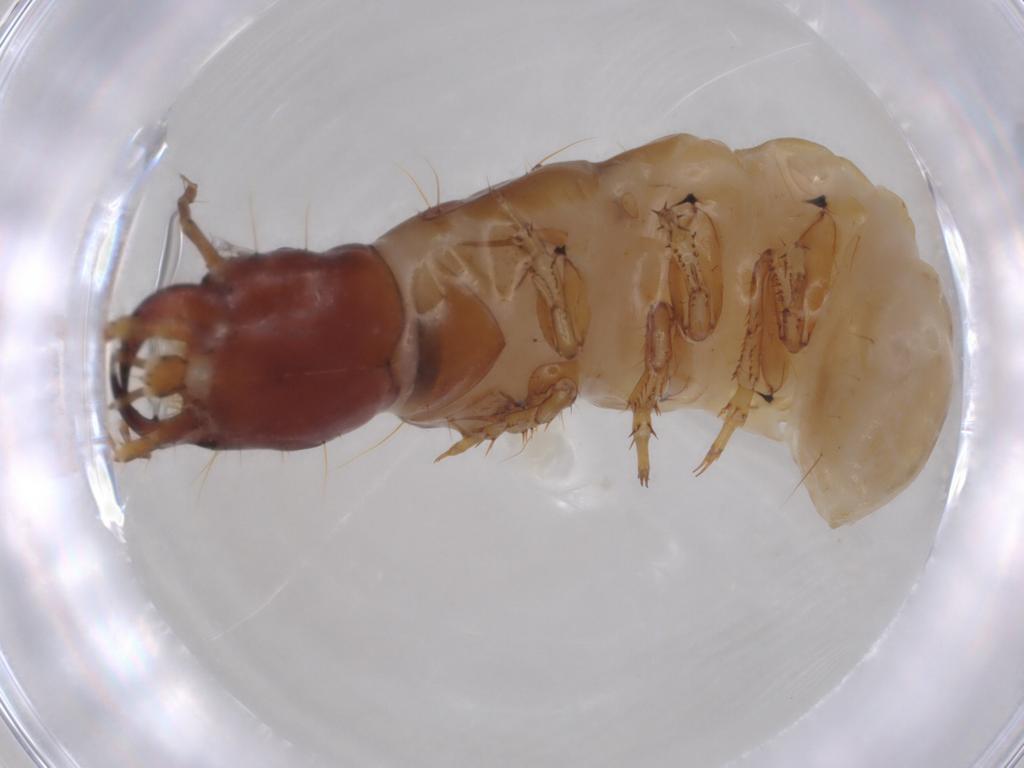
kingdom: Animalia
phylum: Arthropoda
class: Insecta
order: Coleoptera
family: Carabidae
